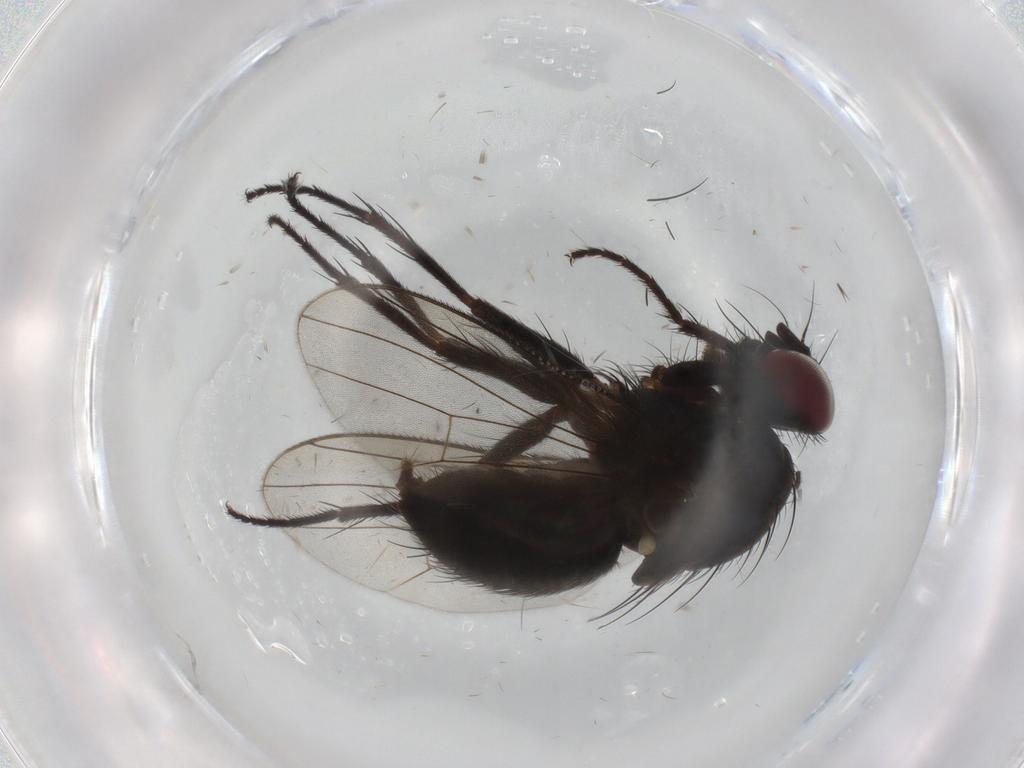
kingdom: Animalia
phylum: Arthropoda
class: Insecta
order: Diptera
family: Muscidae
